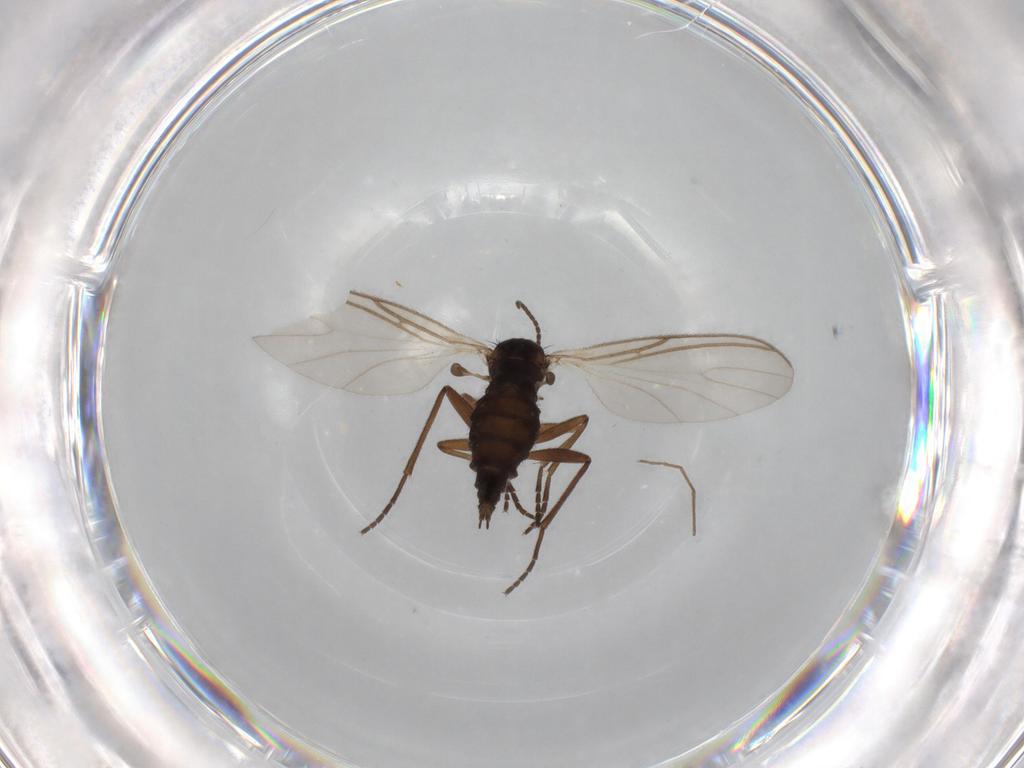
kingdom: Animalia
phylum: Arthropoda
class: Insecta
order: Diptera
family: Sciaridae
